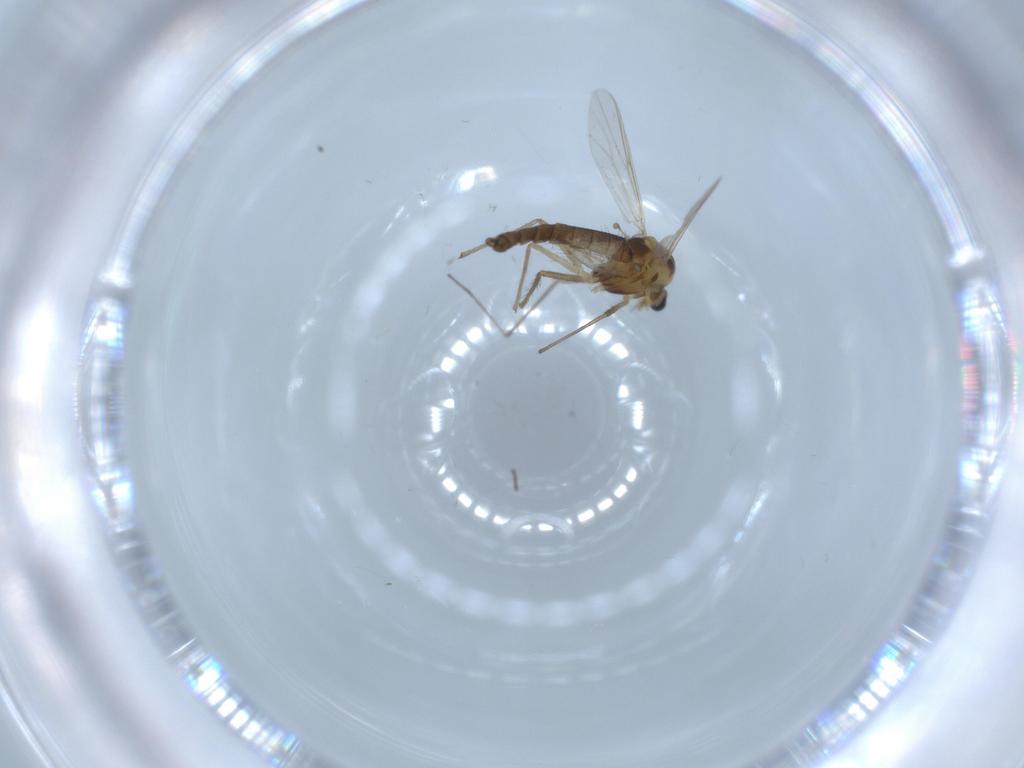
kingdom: Animalia
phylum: Arthropoda
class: Insecta
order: Diptera
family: Chironomidae
